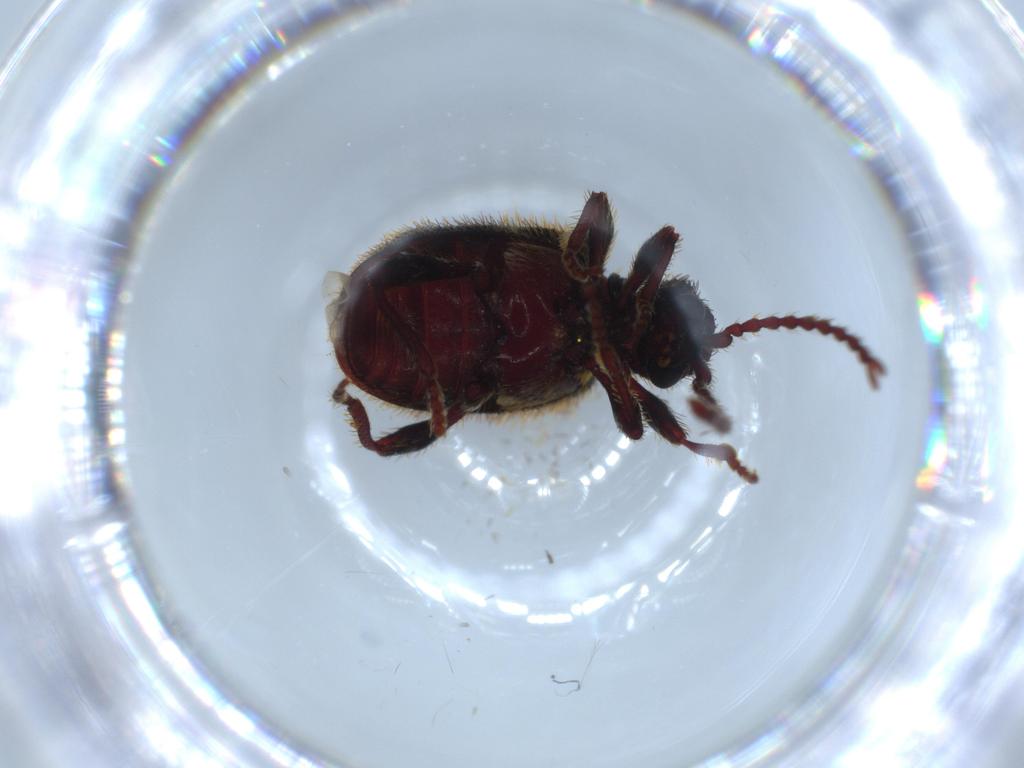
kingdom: Animalia
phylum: Arthropoda
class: Insecta
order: Coleoptera
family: Ptinidae
